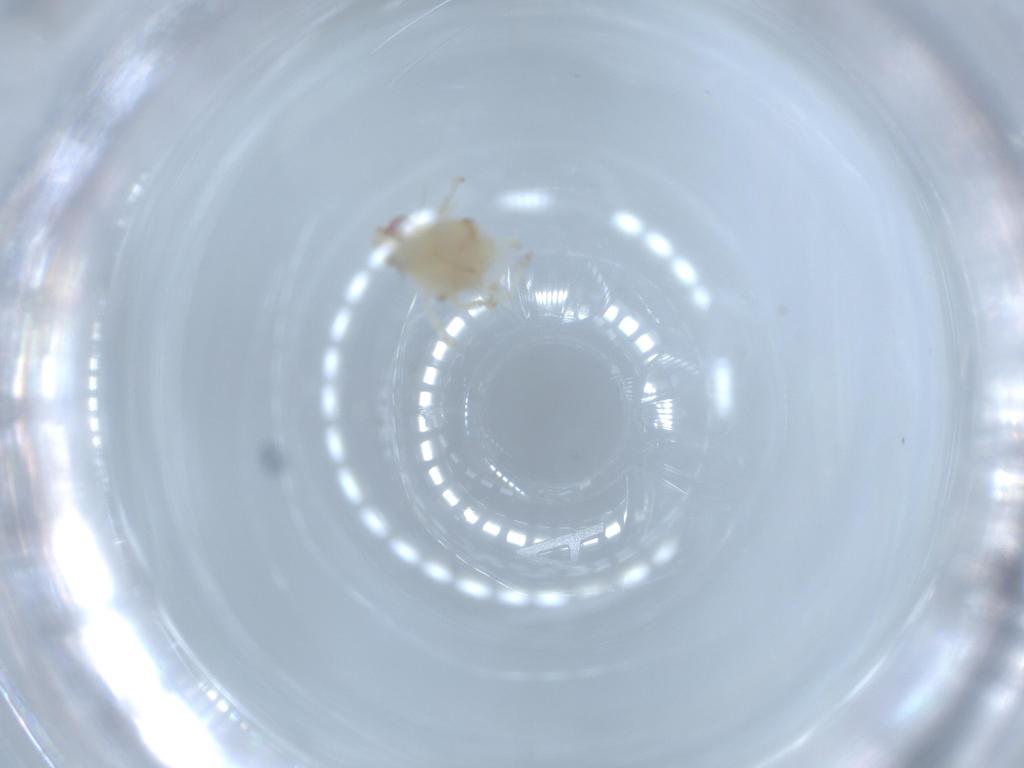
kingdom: Animalia
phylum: Arthropoda
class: Insecta
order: Hemiptera
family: Nogodinidae
